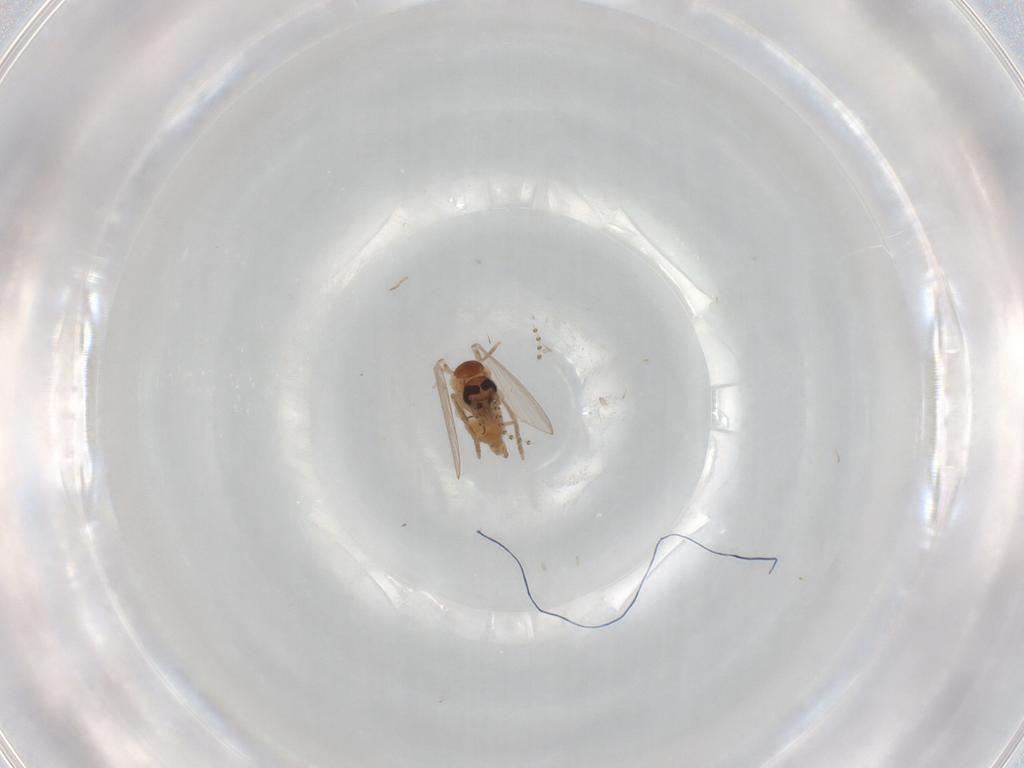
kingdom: Animalia
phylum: Arthropoda
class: Insecta
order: Diptera
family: Psychodidae
